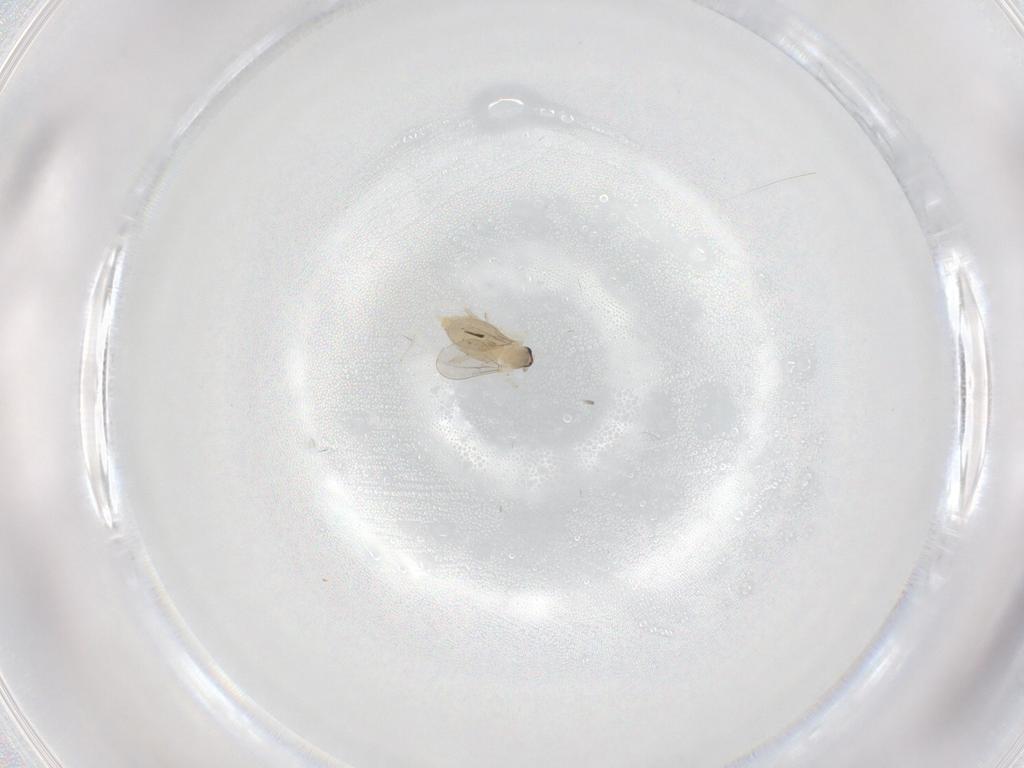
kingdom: Animalia
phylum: Arthropoda
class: Insecta
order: Diptera
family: Cecidomyiidae
